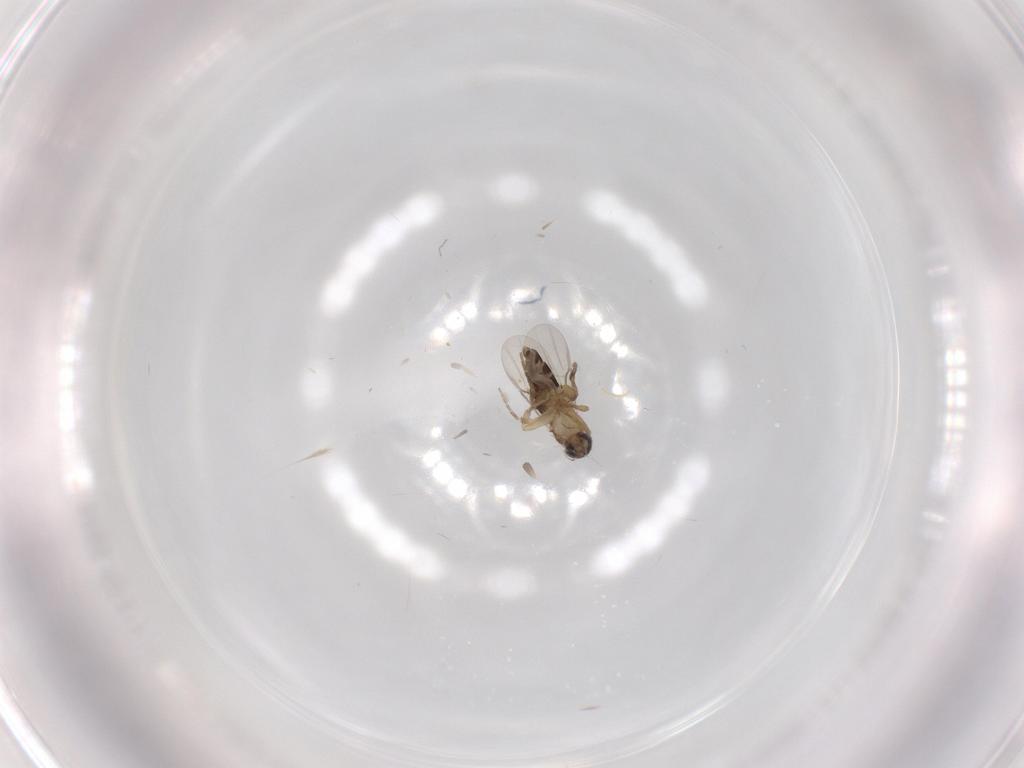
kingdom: Animalia
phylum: Arthropoda
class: Insecta
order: Diptera
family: Phoridae
